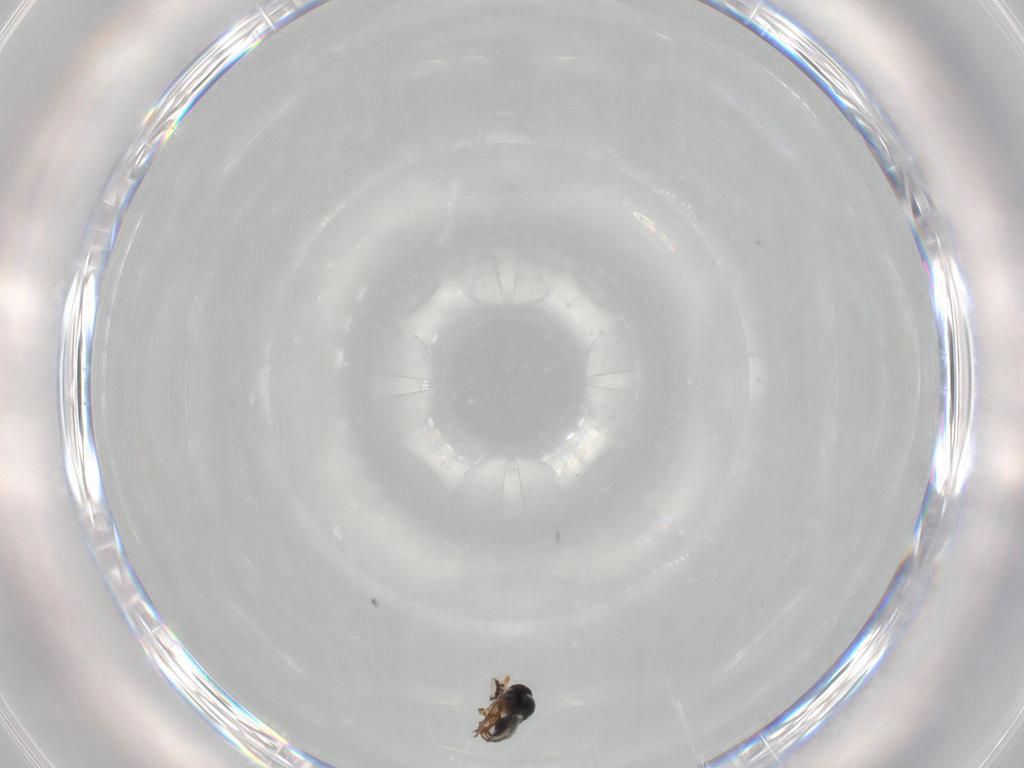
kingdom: Animalia
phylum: Arthropoda
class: Insecta
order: Hymenoptera
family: Platygastridae
